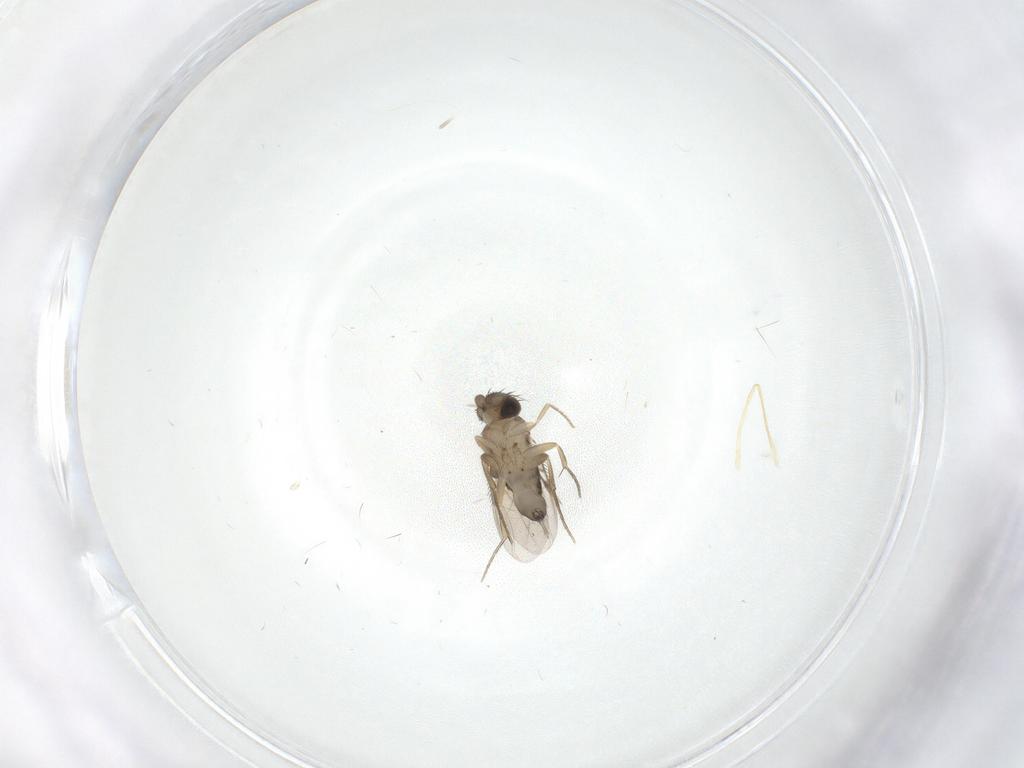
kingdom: Animalia
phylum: Arthropoda
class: Insecta
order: Diptera
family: Phoridae
